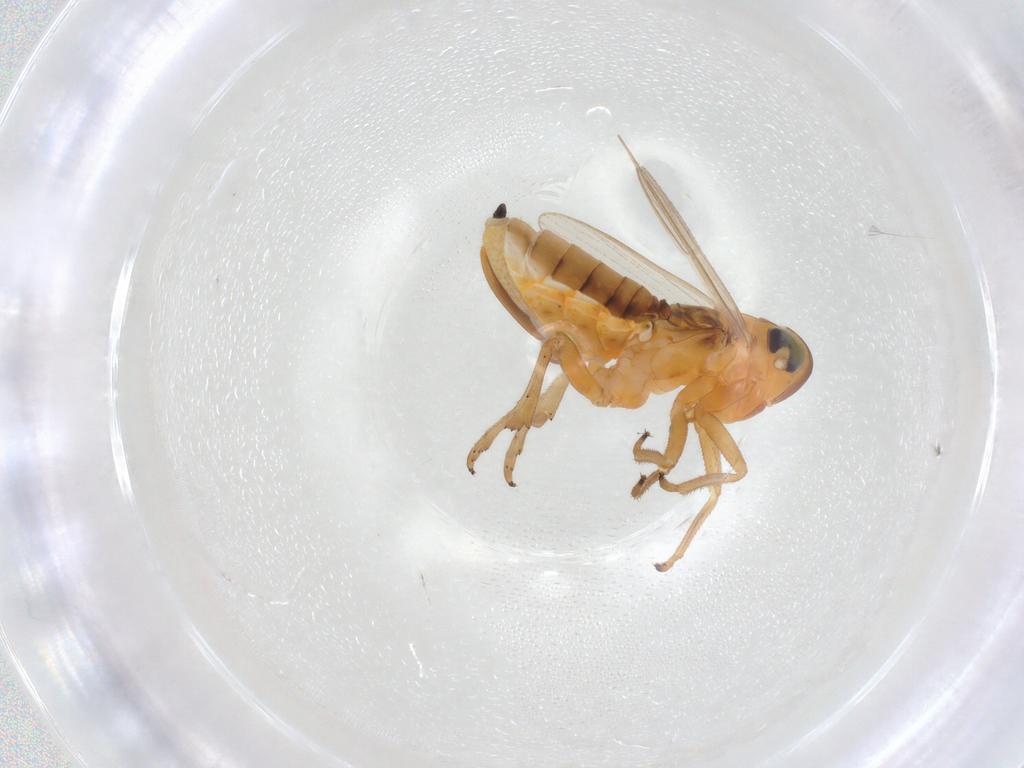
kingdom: Animalia
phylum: Arthropoda
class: Insecta
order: Hemiptera
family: Delphacidae
